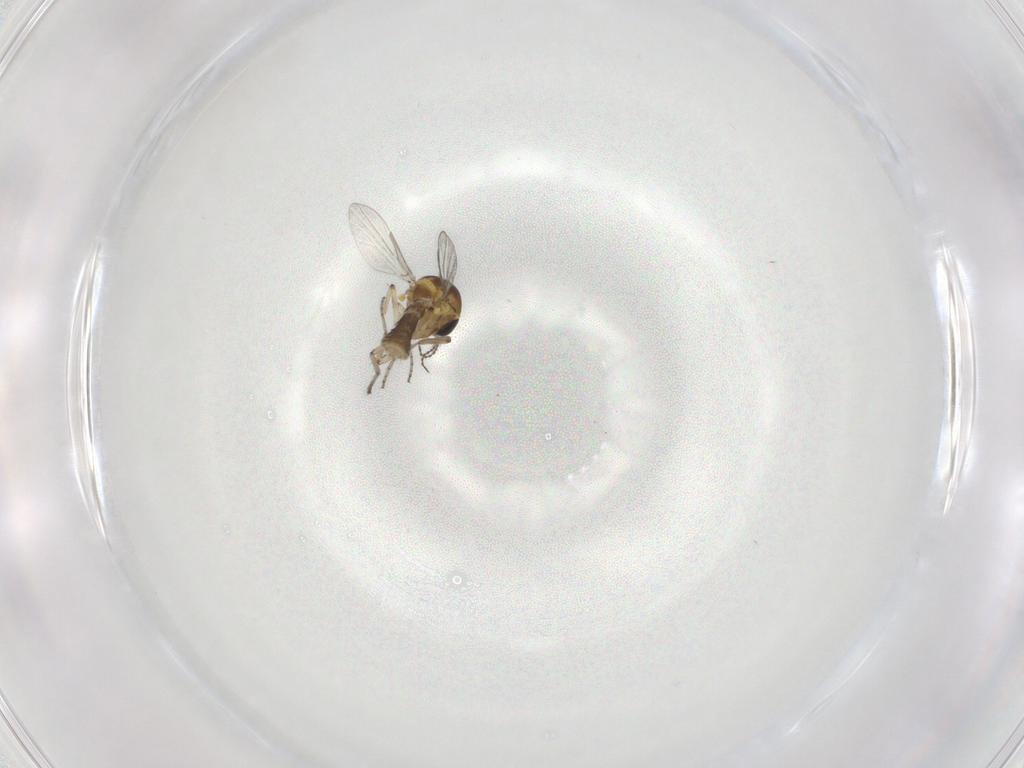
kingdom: Animalia
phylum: Arthropoda
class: Insecta
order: Diptera
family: Ceratopogonidae
